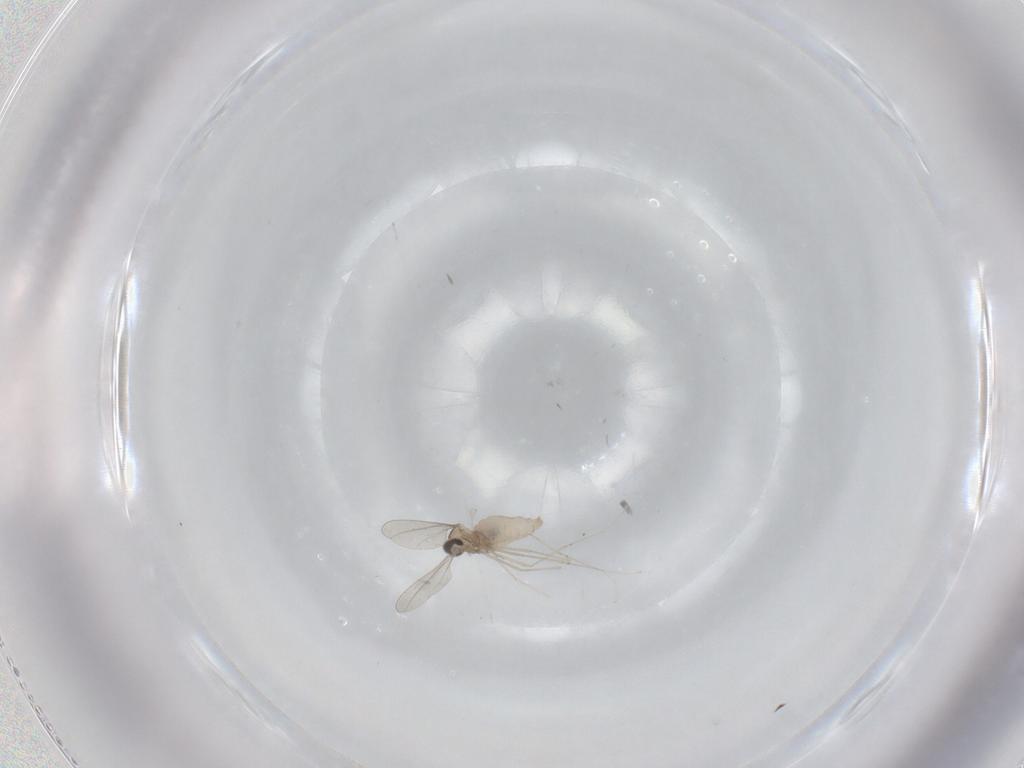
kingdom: Animalia
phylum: Arthropoda
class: Insecta
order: Diptera
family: Cecidomyiidae
